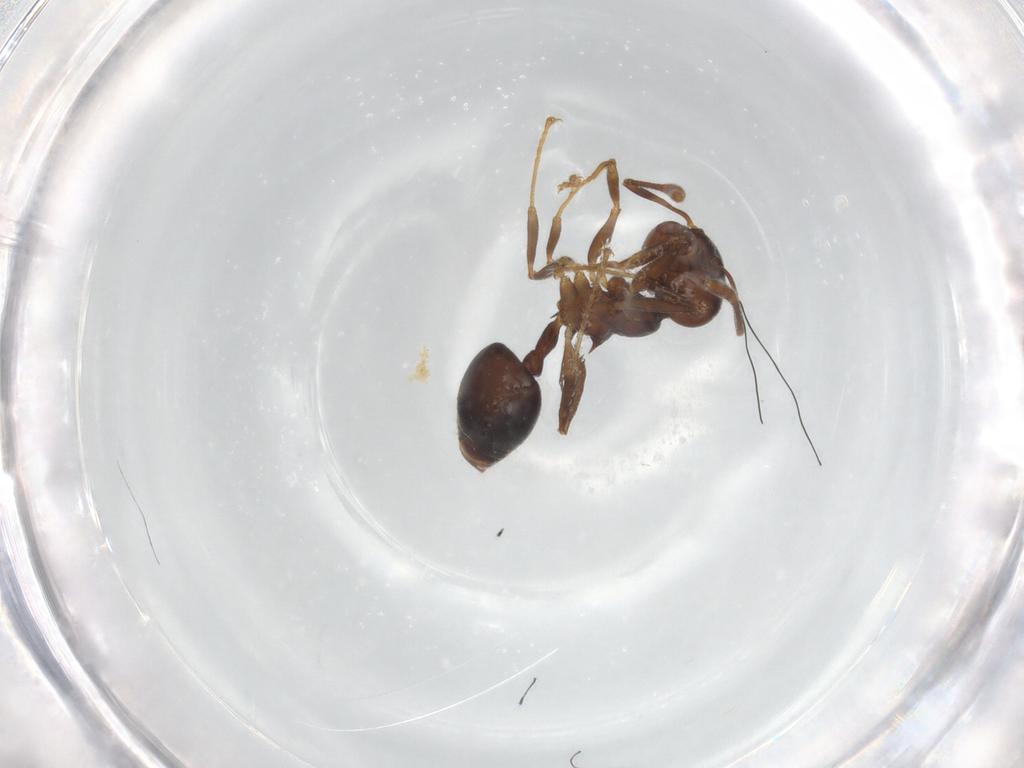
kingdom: Animalia
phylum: Arthropoda
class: Insecta
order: Hymenoptera
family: Formicidae
